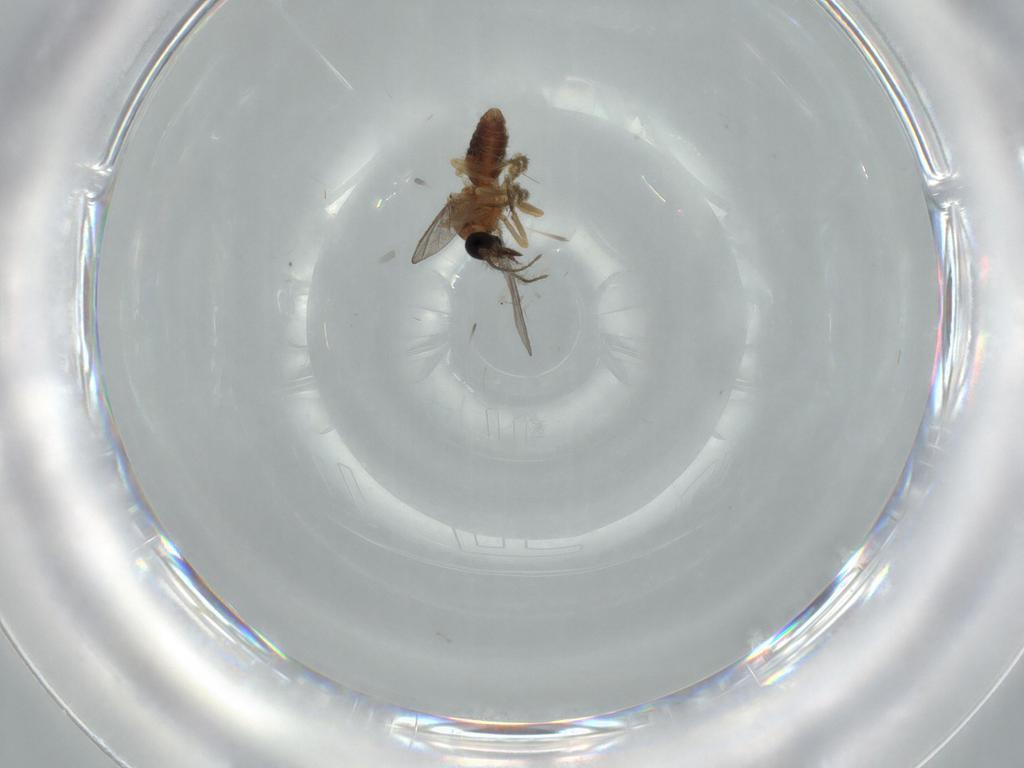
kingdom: Animalia
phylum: Arthropoda
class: Insecta
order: Diptera
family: Ceratopogonidae
